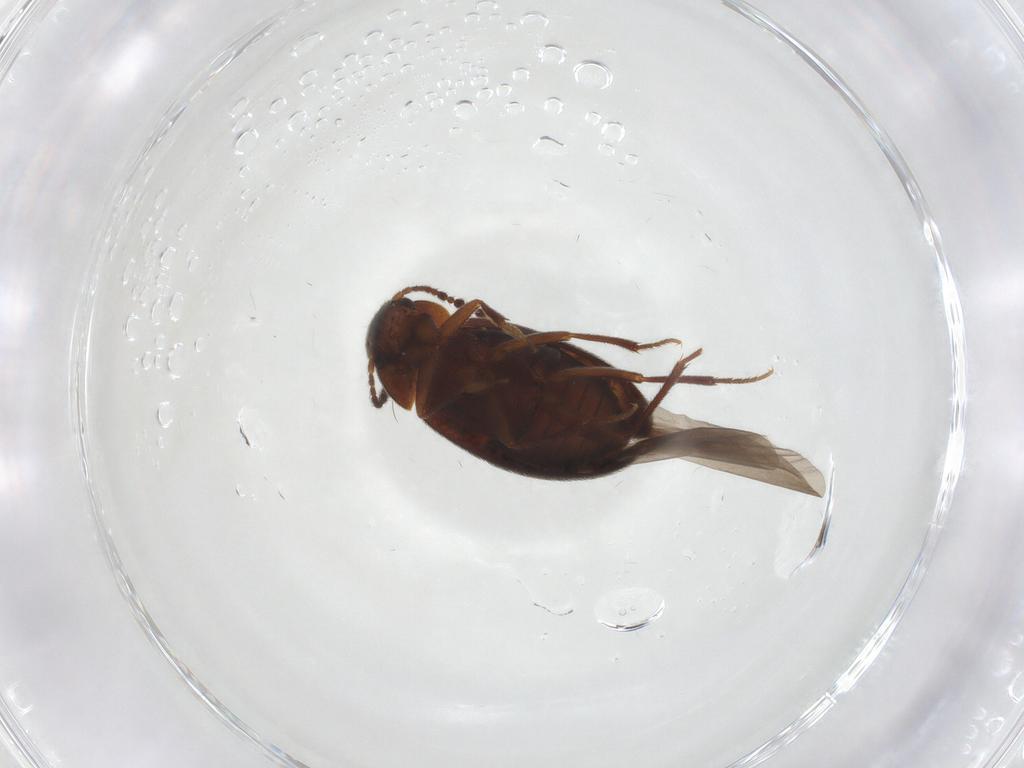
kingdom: Animalia
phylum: Arthropoda
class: Insecta
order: Coleoptera
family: Leiodidae
